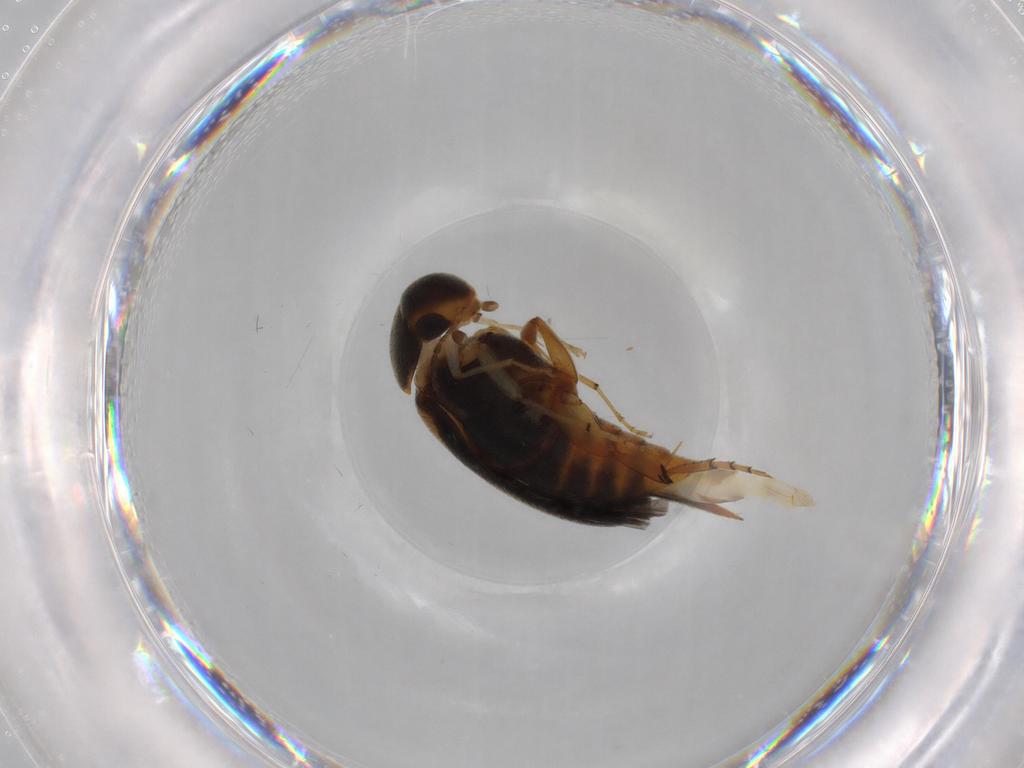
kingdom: Animalia
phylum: Arthropoda
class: Insecta
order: Coleoptera
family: Mordellidae
